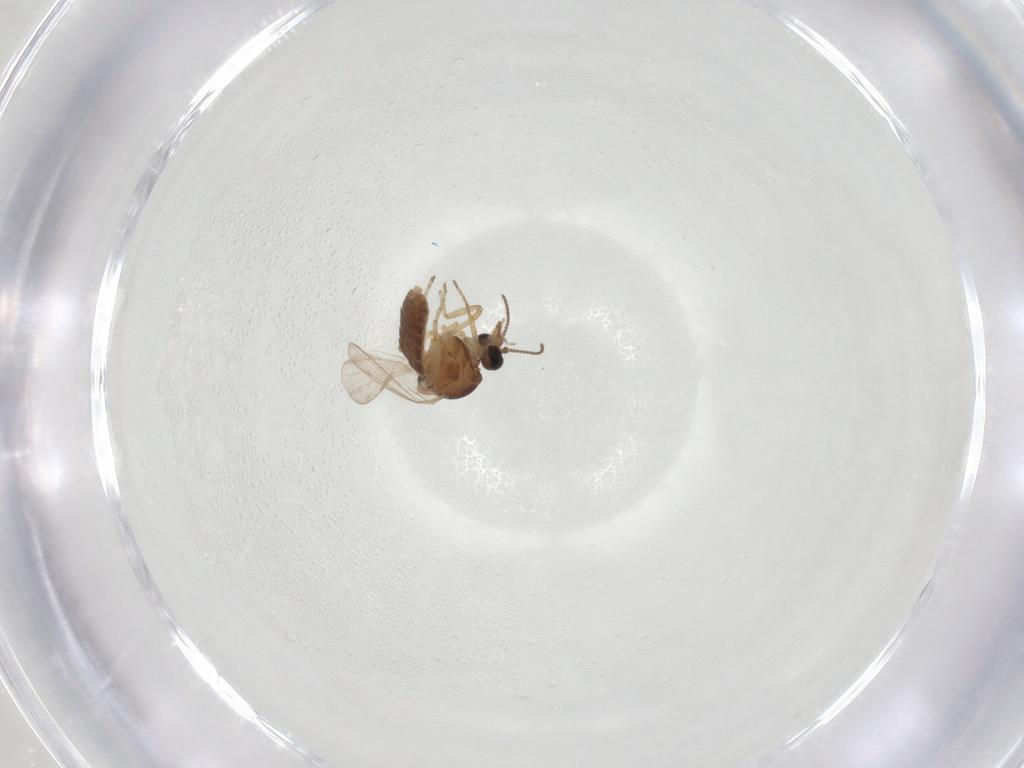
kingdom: Animalia
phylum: Arthropoda
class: Insecta
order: Diptera
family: Ceratopogonidae
